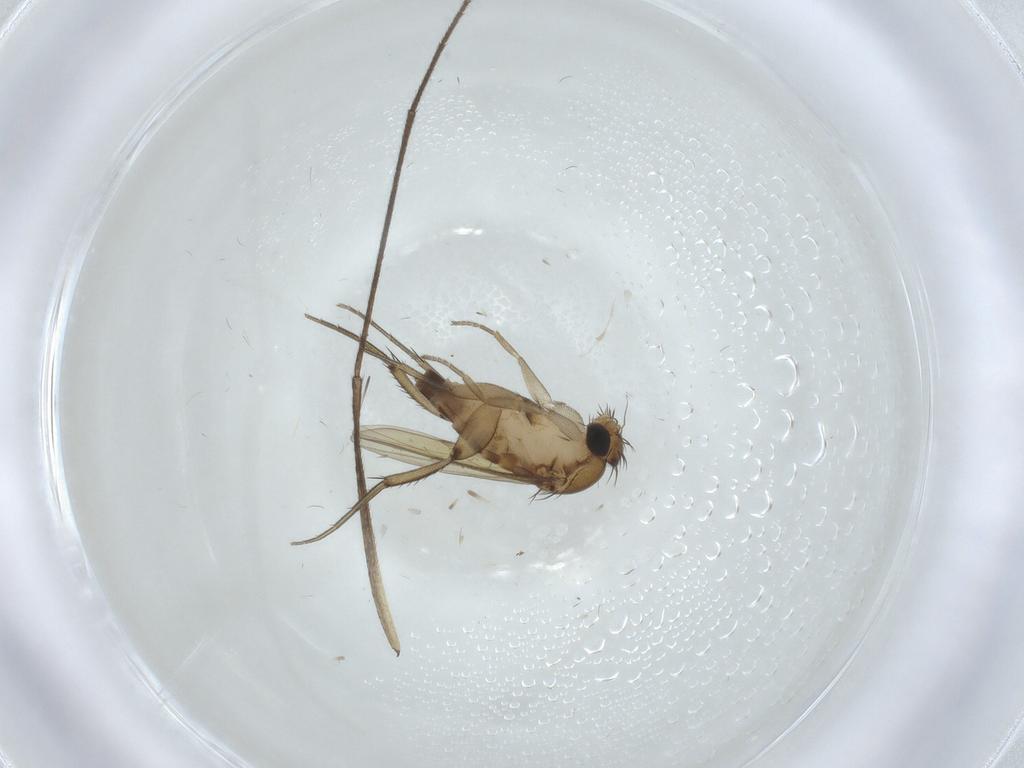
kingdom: Animalia
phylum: Arthropoda
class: Insecta
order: Diptera
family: Phoridae
